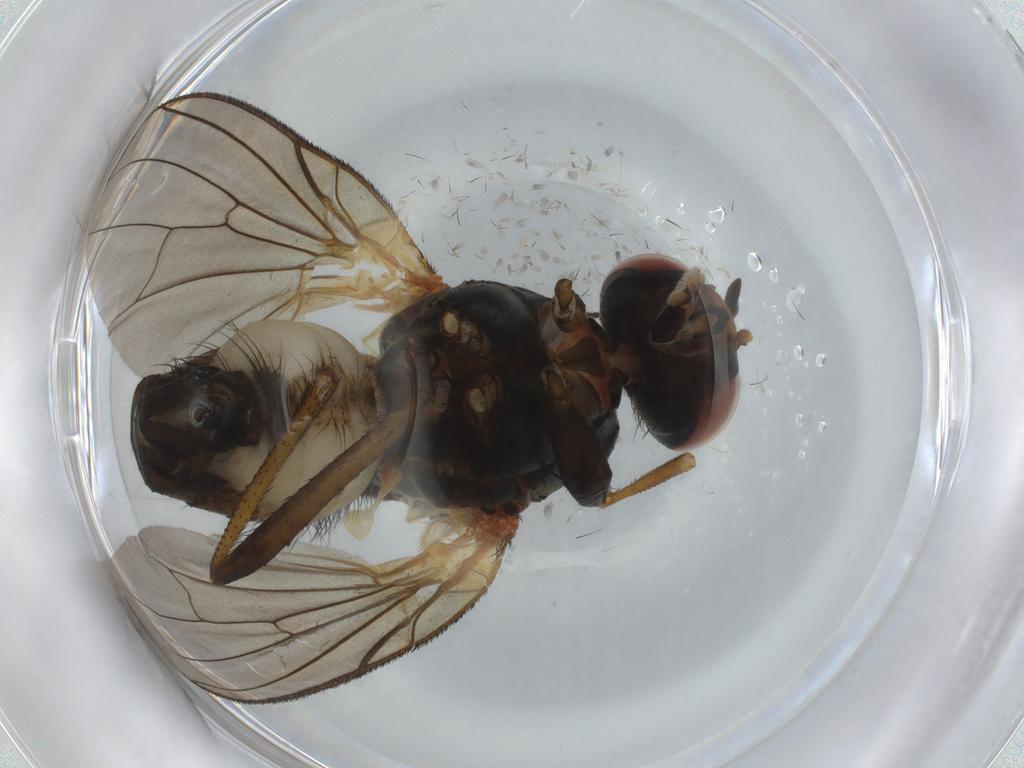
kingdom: Animalia
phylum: Arthropoda
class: Insecta
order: Diptera
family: Anthomyiidae
